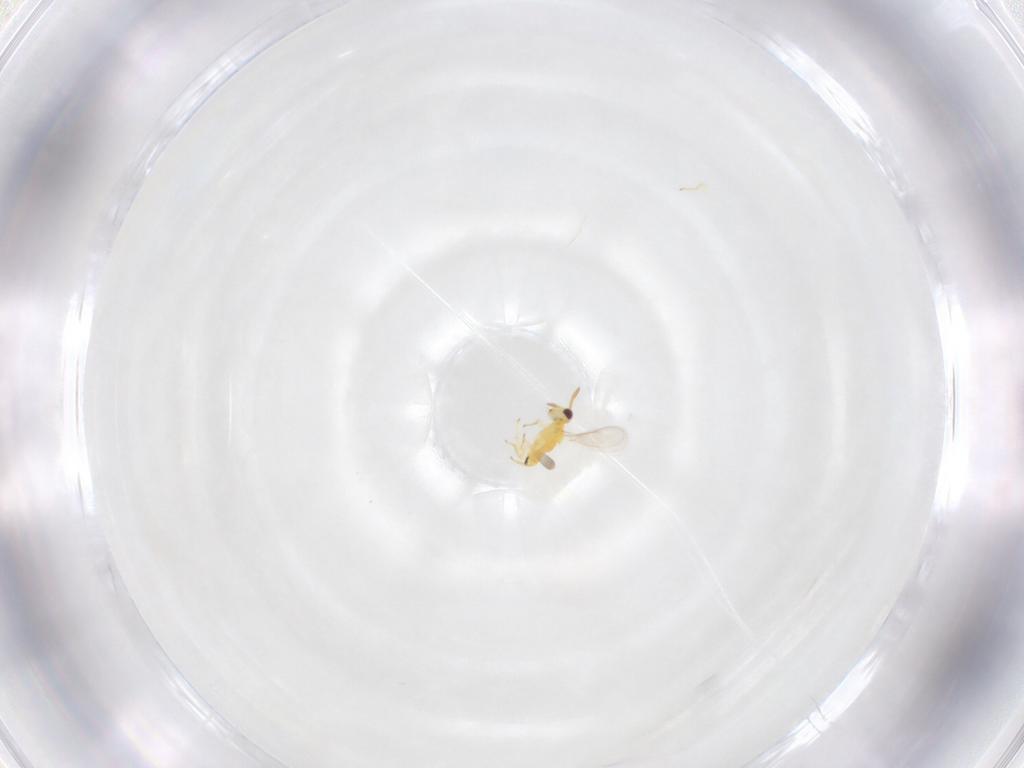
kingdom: Animalia
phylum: Arthropoda
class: Insecta
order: Hymenoptera
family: Aphelinidae
